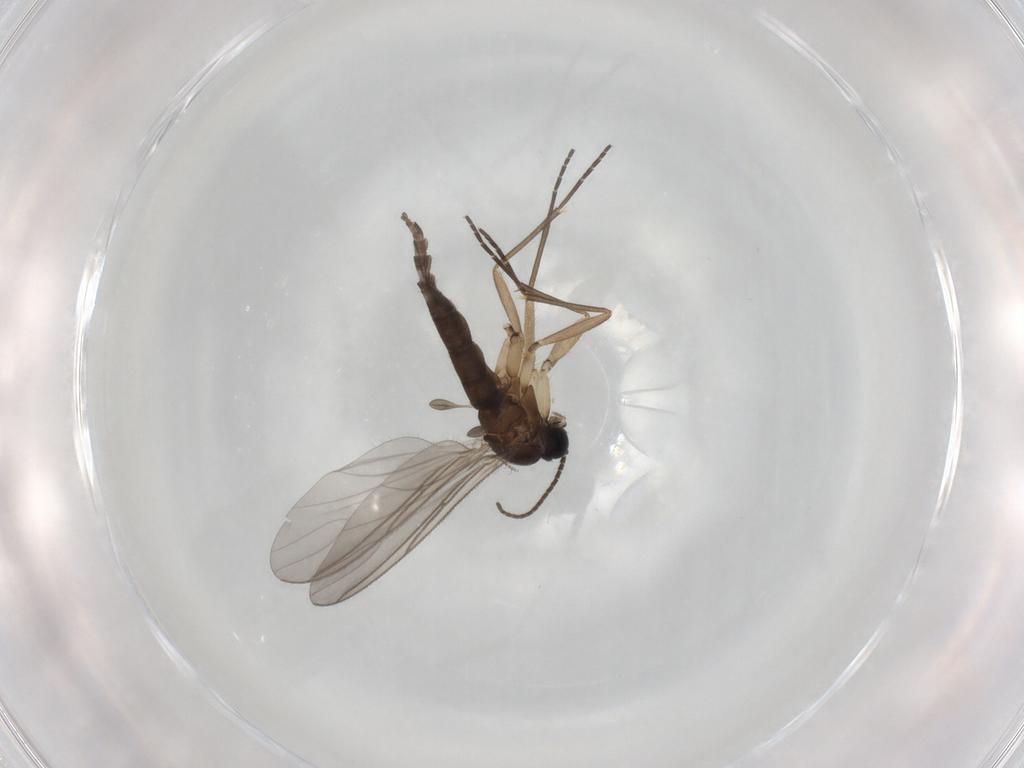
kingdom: Animalia
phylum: Arthropoda
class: Insecta
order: Diptera
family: Sciaridae
